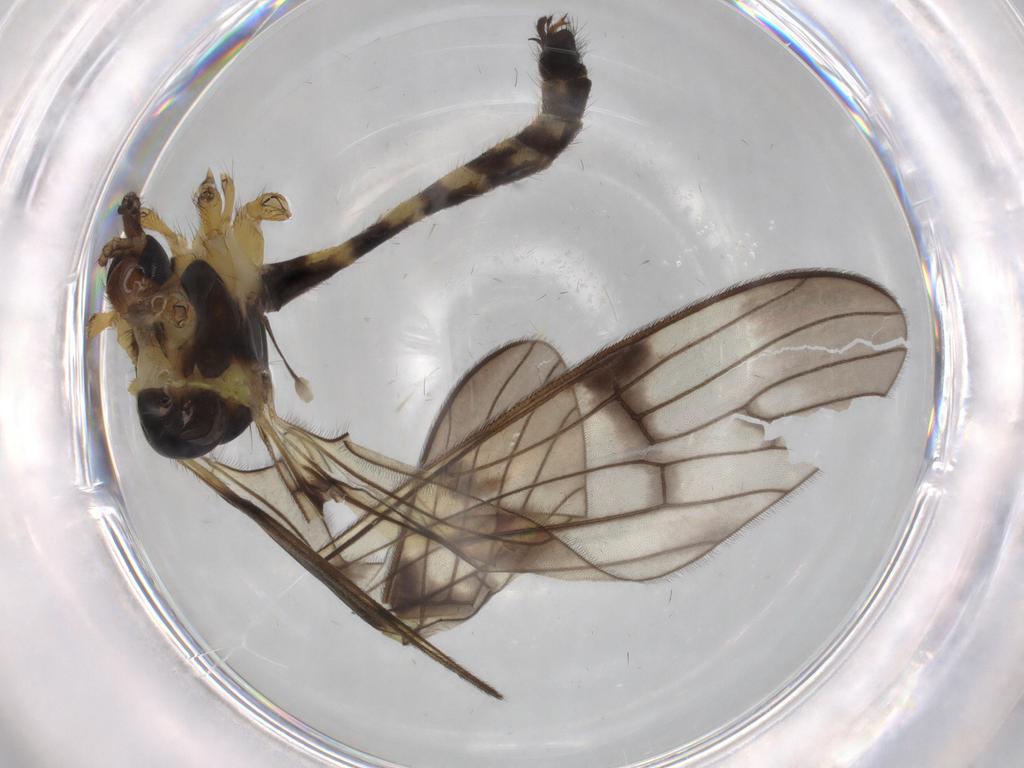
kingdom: Animalia
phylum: Arthropoda
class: Insecta
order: Diptera
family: Limoniidae
